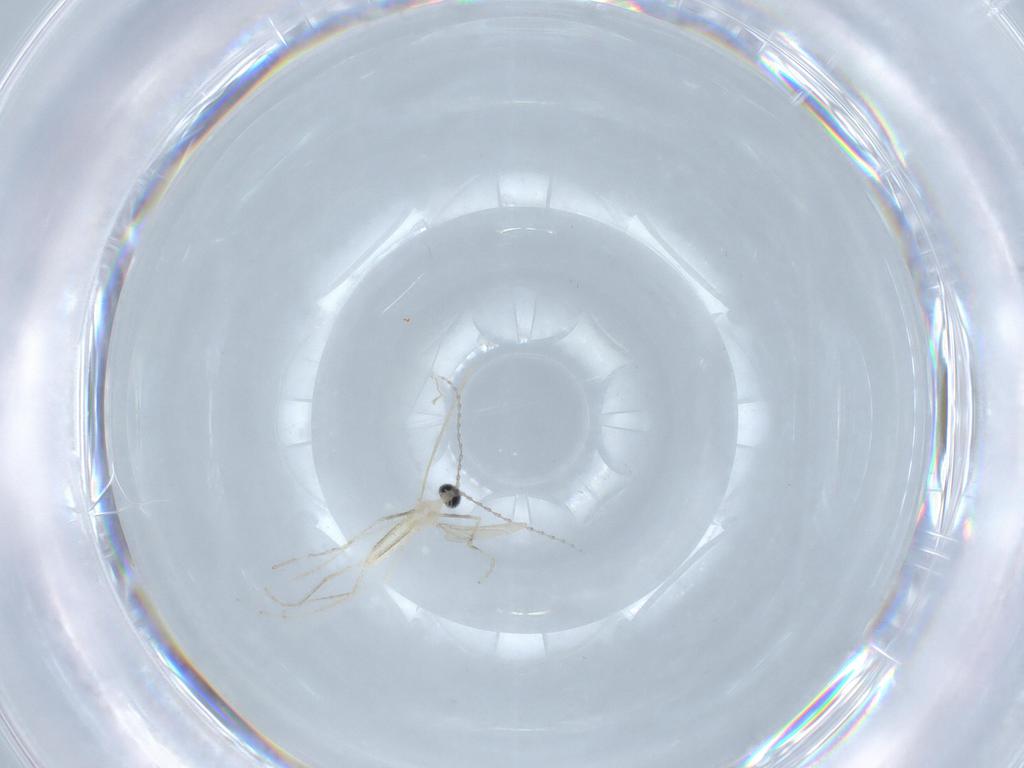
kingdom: Animalia
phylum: Arthropoda
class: Insecta
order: Diptera
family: Cecidomyiidae
